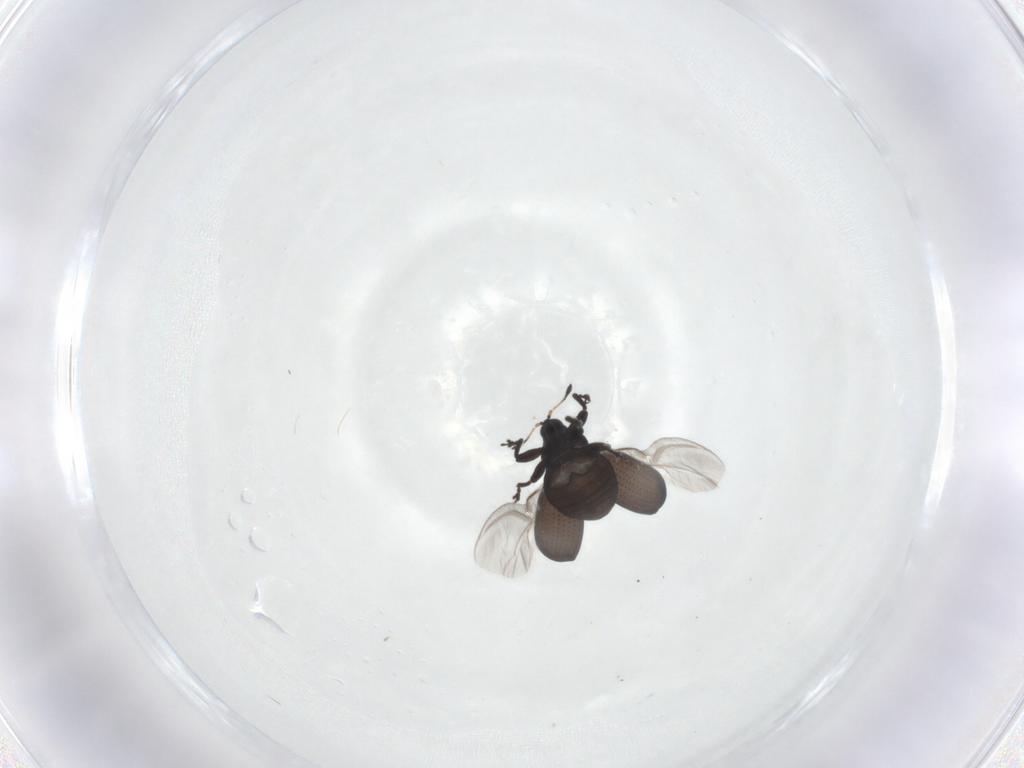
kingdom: Animalia
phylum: Arthropoda
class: Insecta
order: Coleoptera
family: Curculionidae
